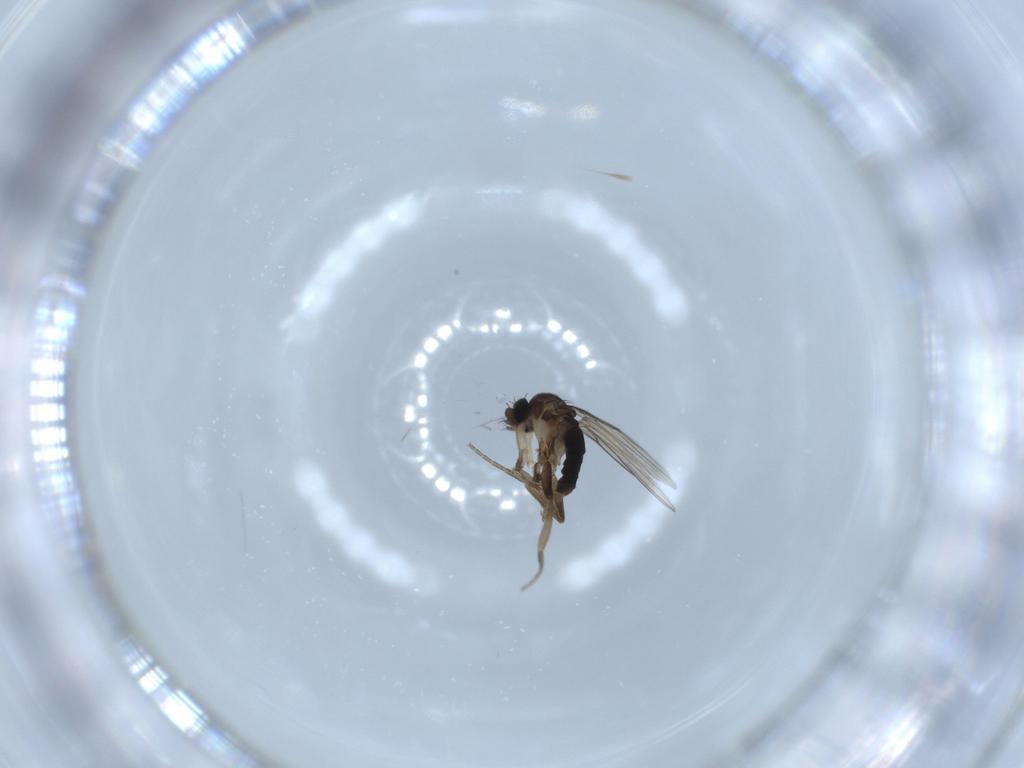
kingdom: Animalia
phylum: Arthropoda
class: Insecta
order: Diptera
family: Phoridae
